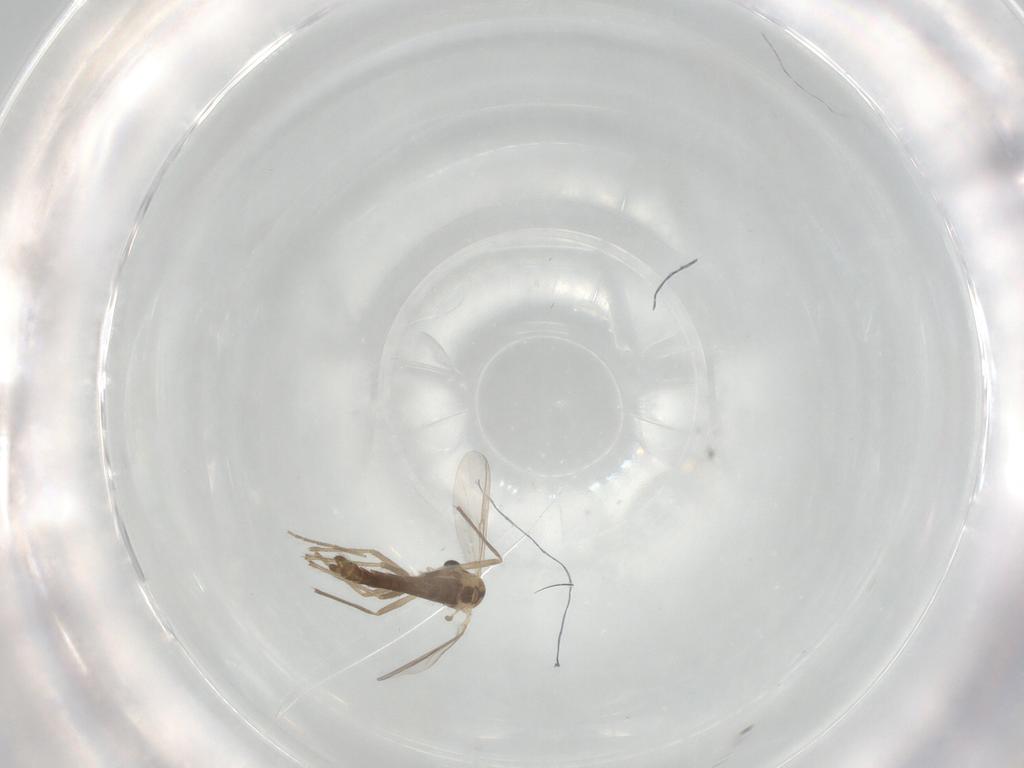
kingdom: Animalia
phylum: Arthropoda
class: Insecta
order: Diptera
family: Chironomidae
